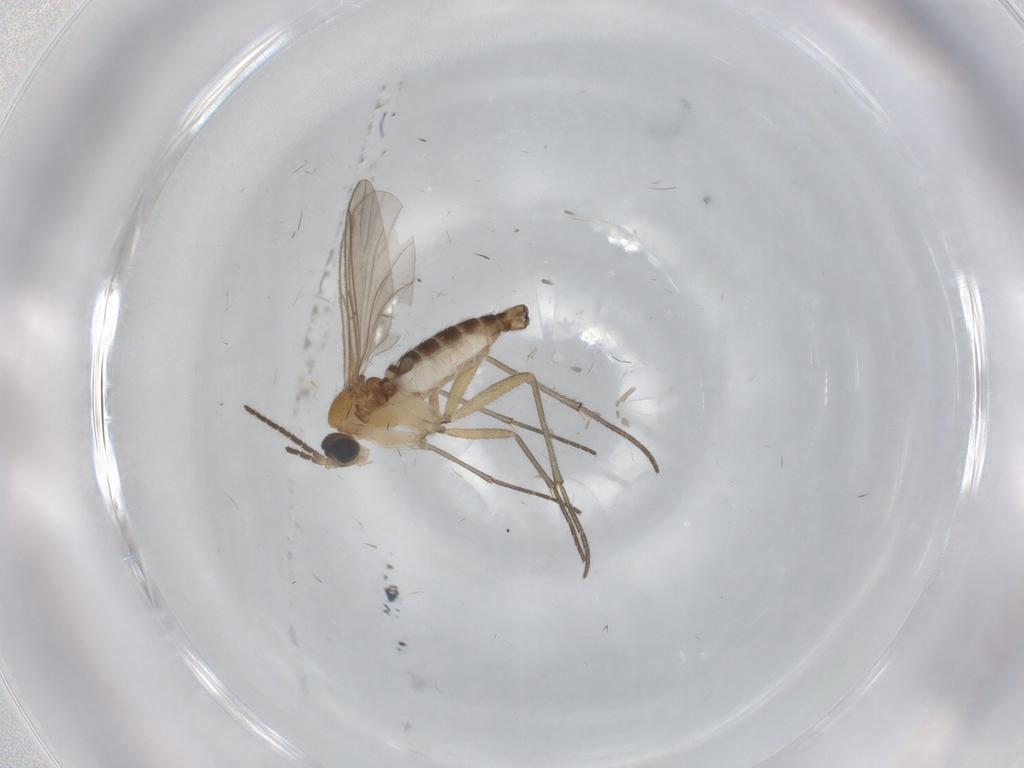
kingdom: Animalia
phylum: Arthropoda
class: Insecta
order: Diptera
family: Cecidomyiidae
